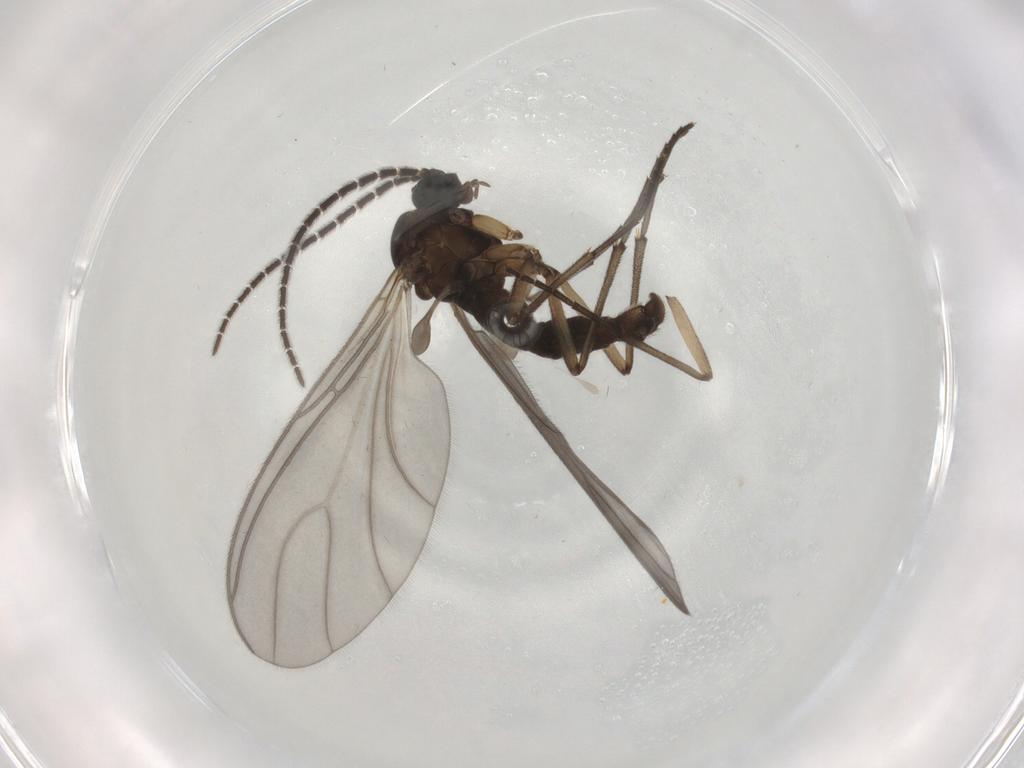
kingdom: Animalia
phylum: Arthropoda
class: Insecta
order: Diptera
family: Sciaridae
